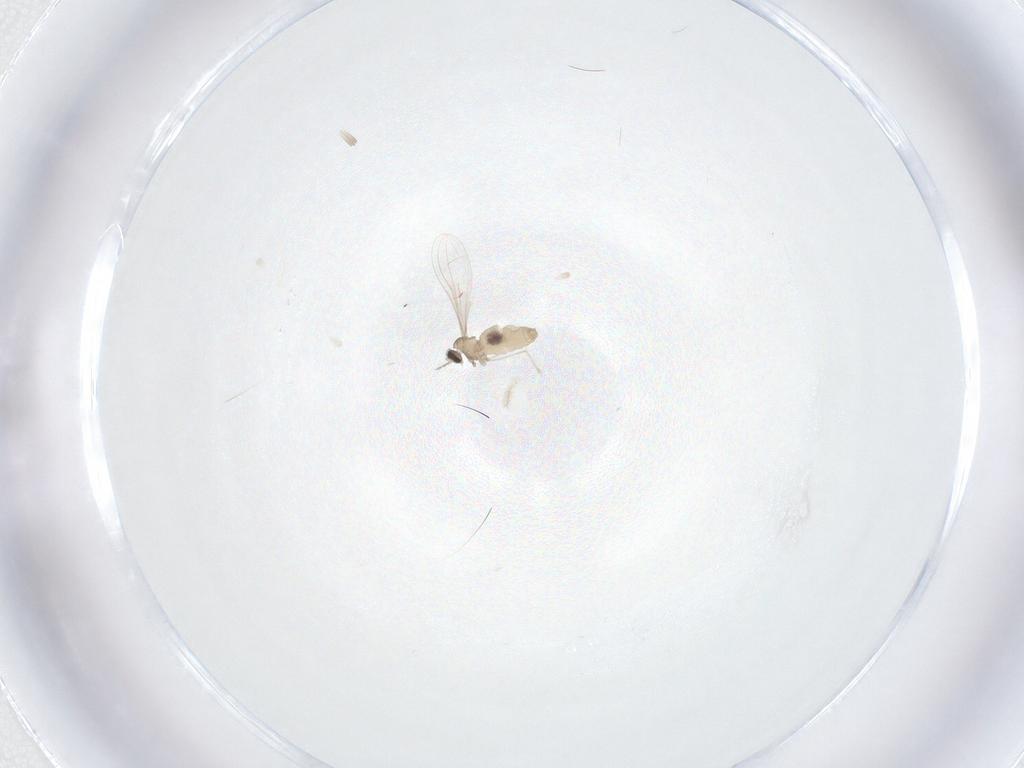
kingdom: Animalia
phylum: Arthropoda
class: Insecta
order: Diptera
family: Cecidomyiidae
